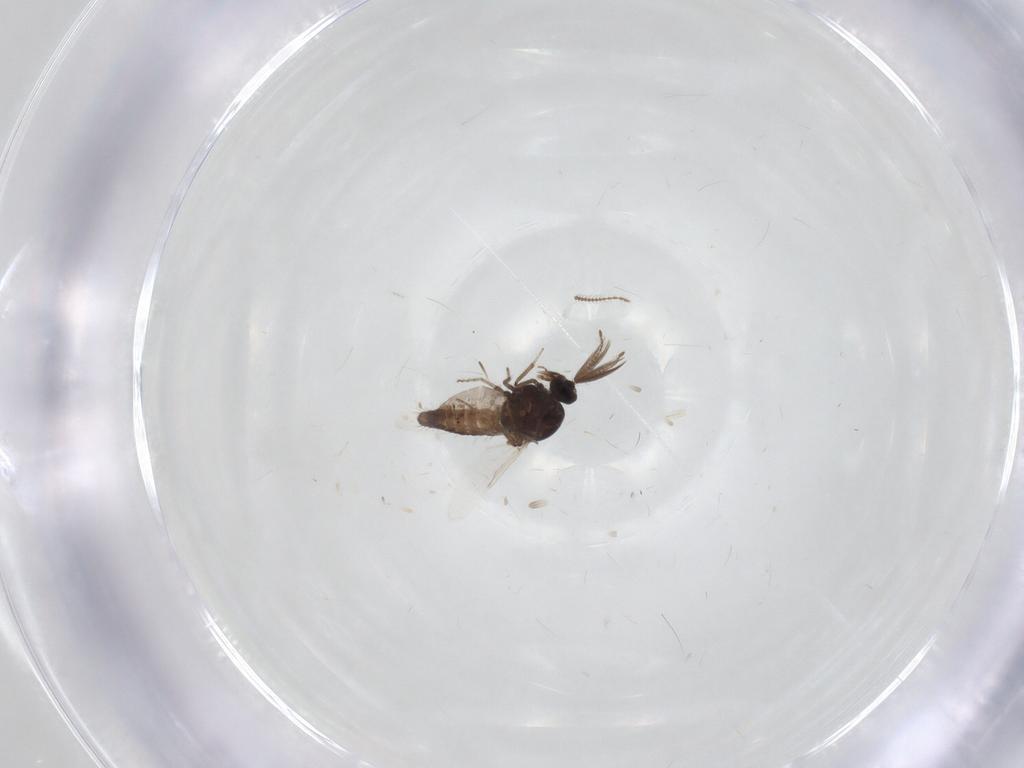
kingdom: Animalia
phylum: Arthropoda
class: Insecta
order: Diptera
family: Ceratopogonidae
